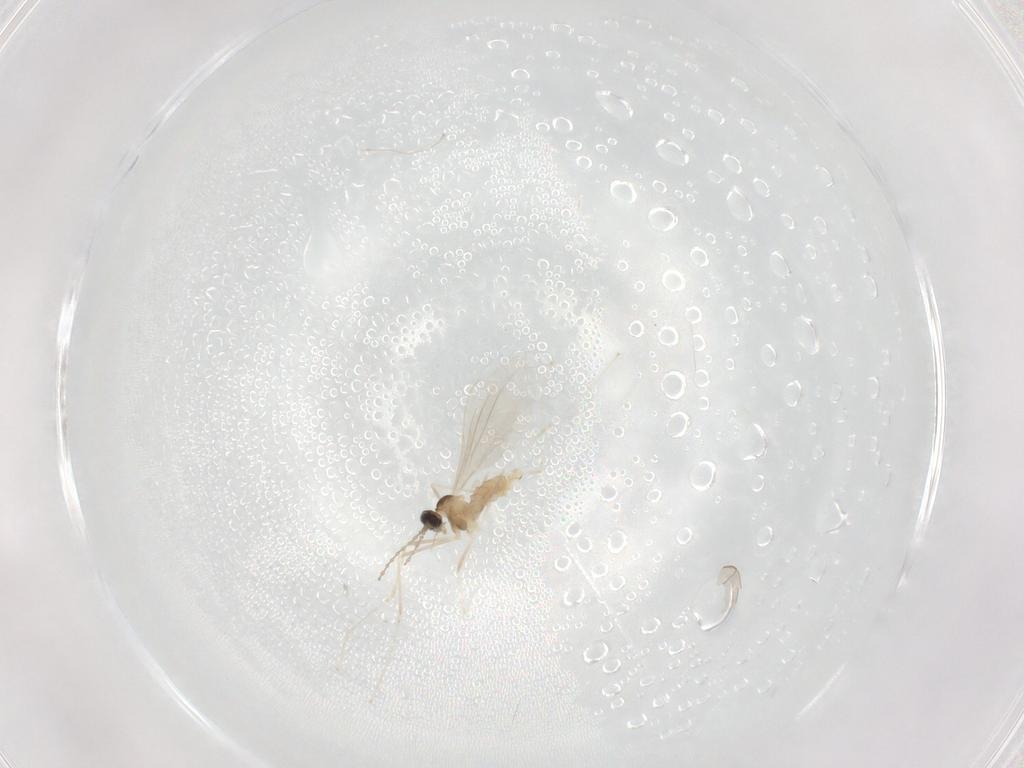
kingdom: Animalia
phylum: Arthropoda
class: Insecta
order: Diptera
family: Cecidomyiidae
